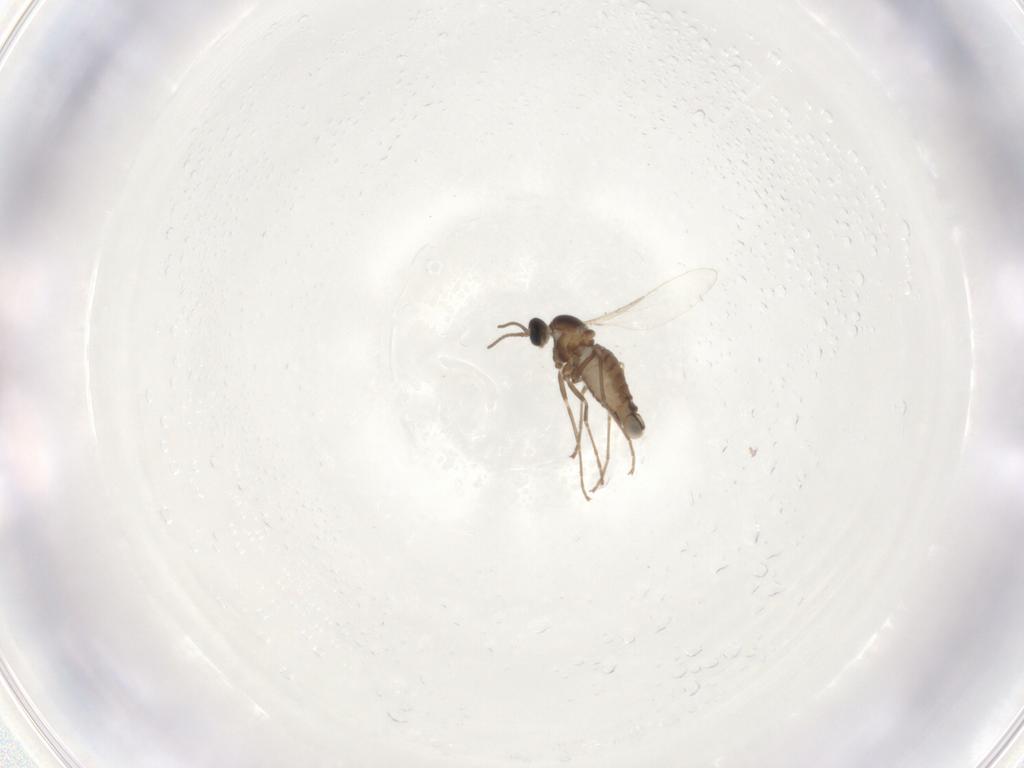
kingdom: Animalia
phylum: Arthropoda
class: Insecta
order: Diptera
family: Cecidomyiidae
